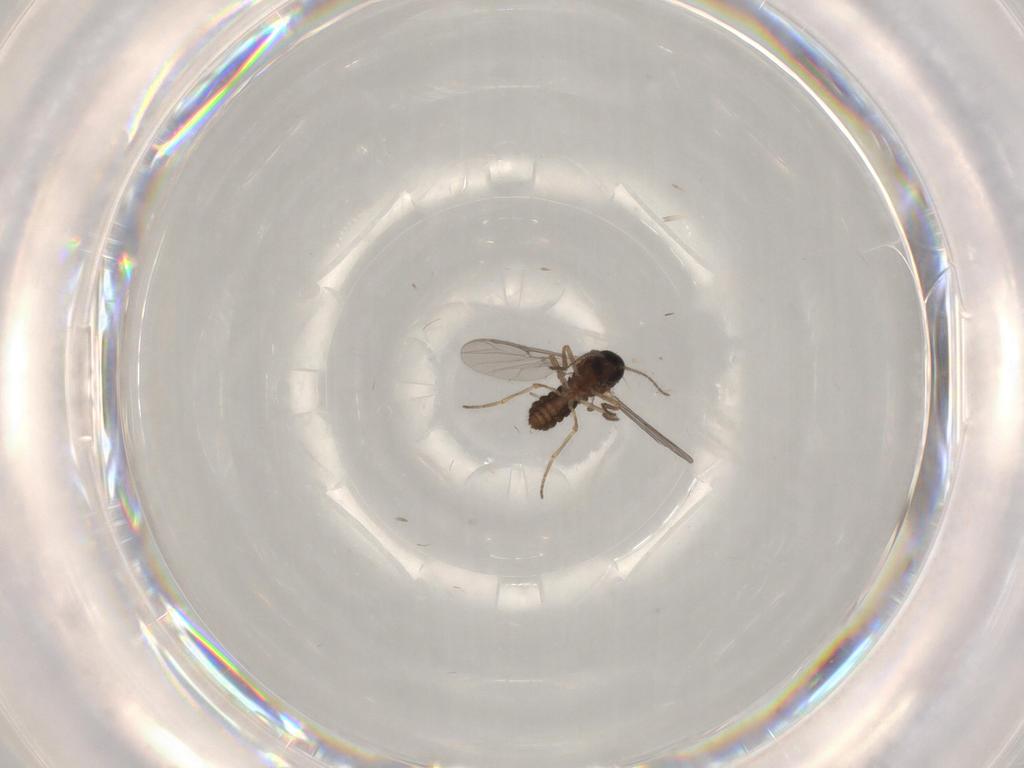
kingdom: Animalia
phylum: Arthropoda
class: Insecta
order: Diptera
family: Ceratopogonidae
